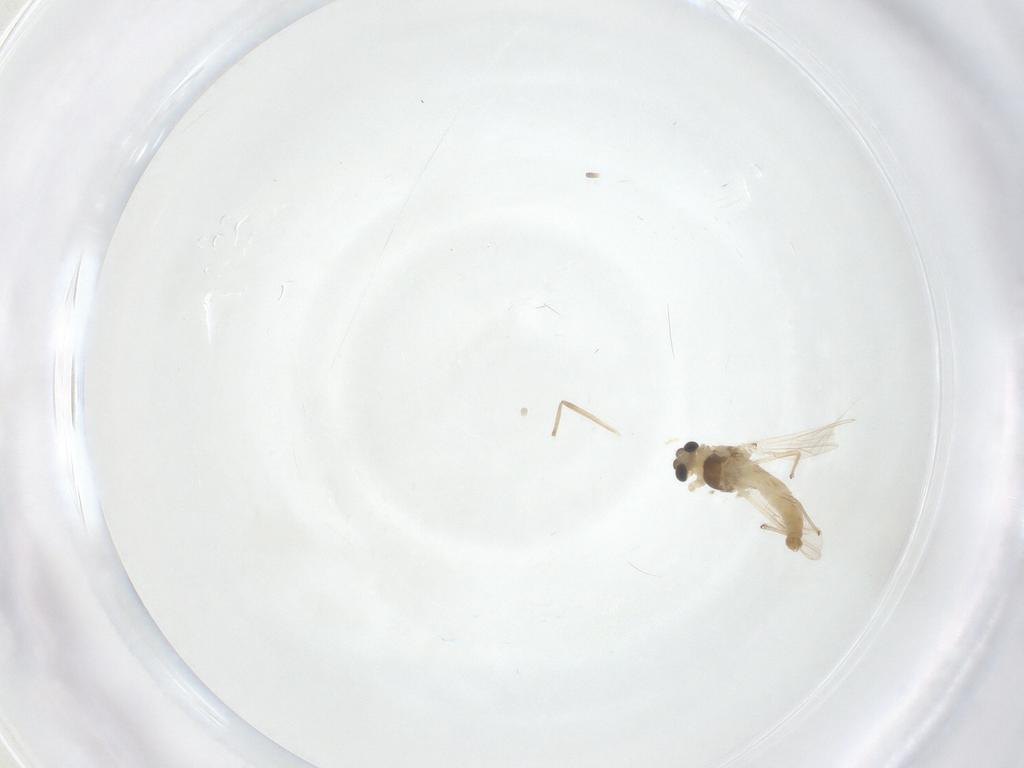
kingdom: Animalia
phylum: Arthropoda
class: Insecta
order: Diptera
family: Chironomidae
